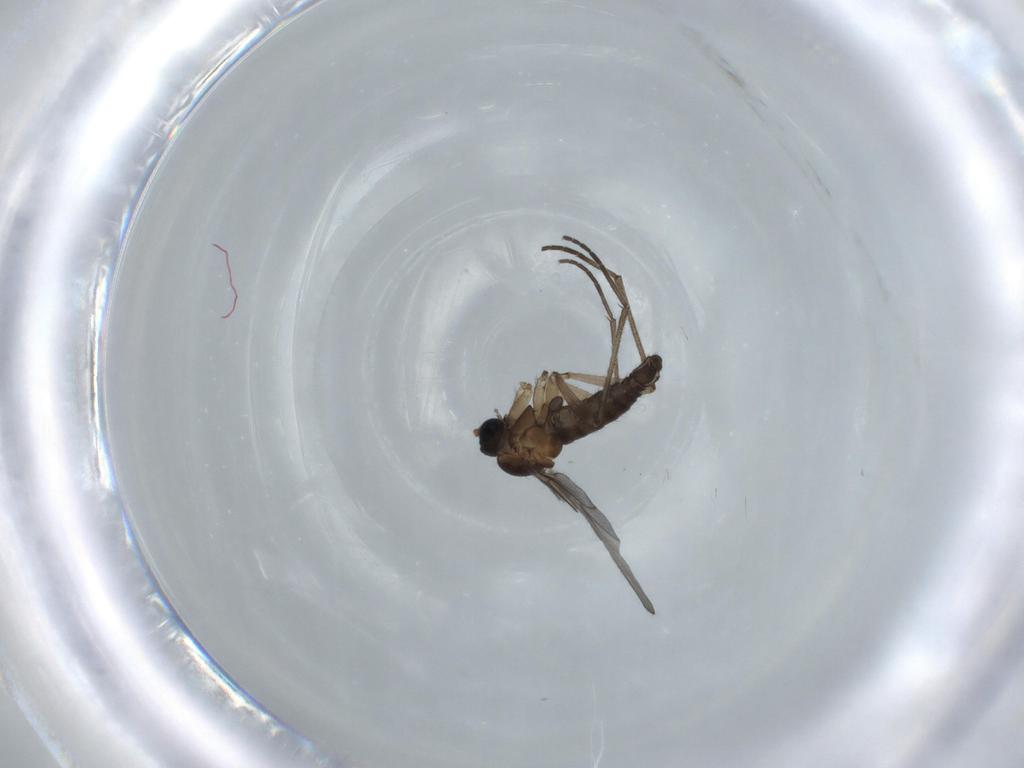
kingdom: Animalia
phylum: Arthropoda
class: Insecta
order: Diptera
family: Sciaridae
